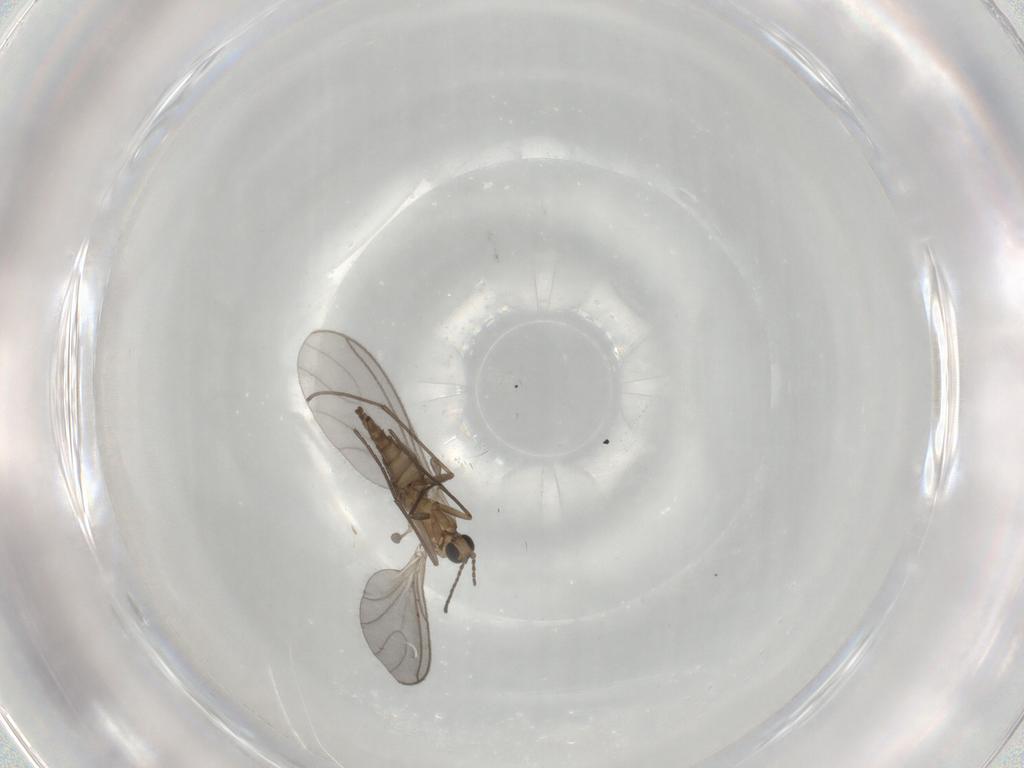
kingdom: Animalia
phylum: Arthropoda
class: Insecta
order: Diptera
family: Sciaridae
